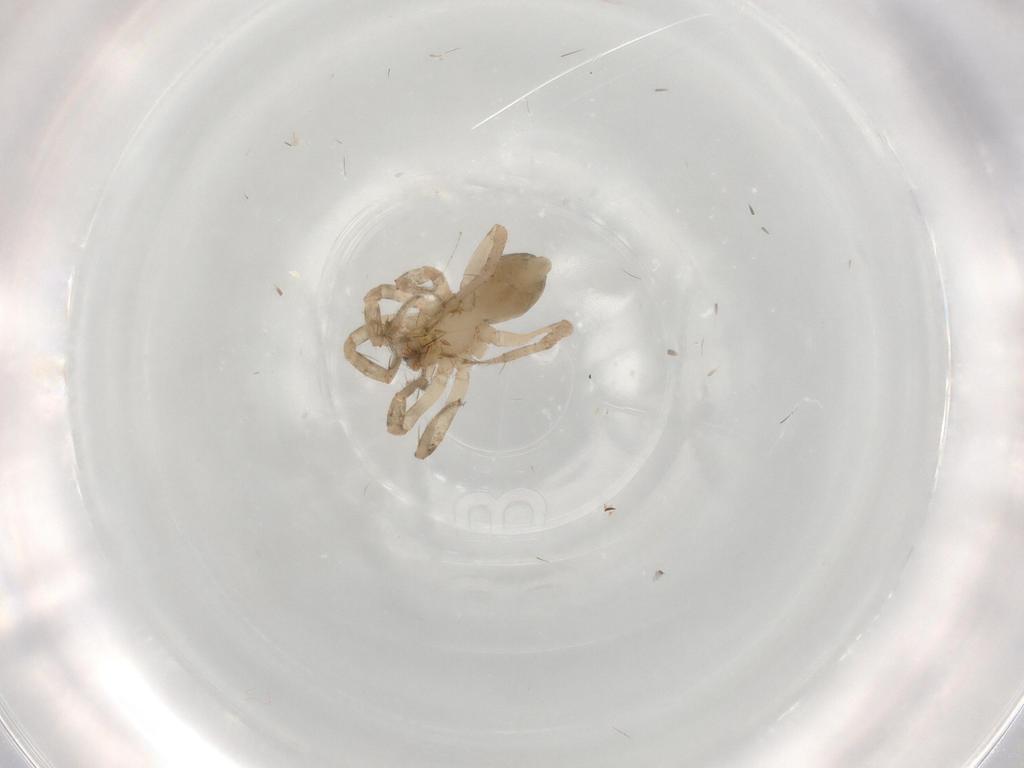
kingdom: Animalia
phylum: Arthropoda
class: Arachnida
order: Araneae
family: Anyphaenidae
